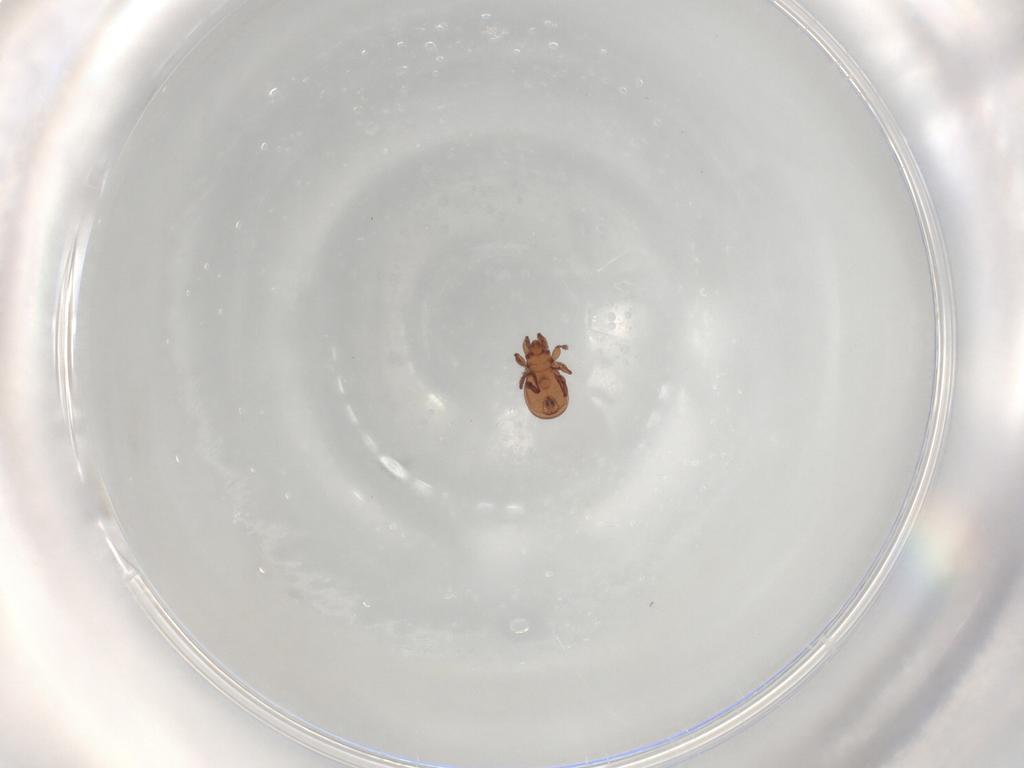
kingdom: Animalia
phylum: Arthropoda
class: Arachnida
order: Sarcoptiformes
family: Eremaeidae
